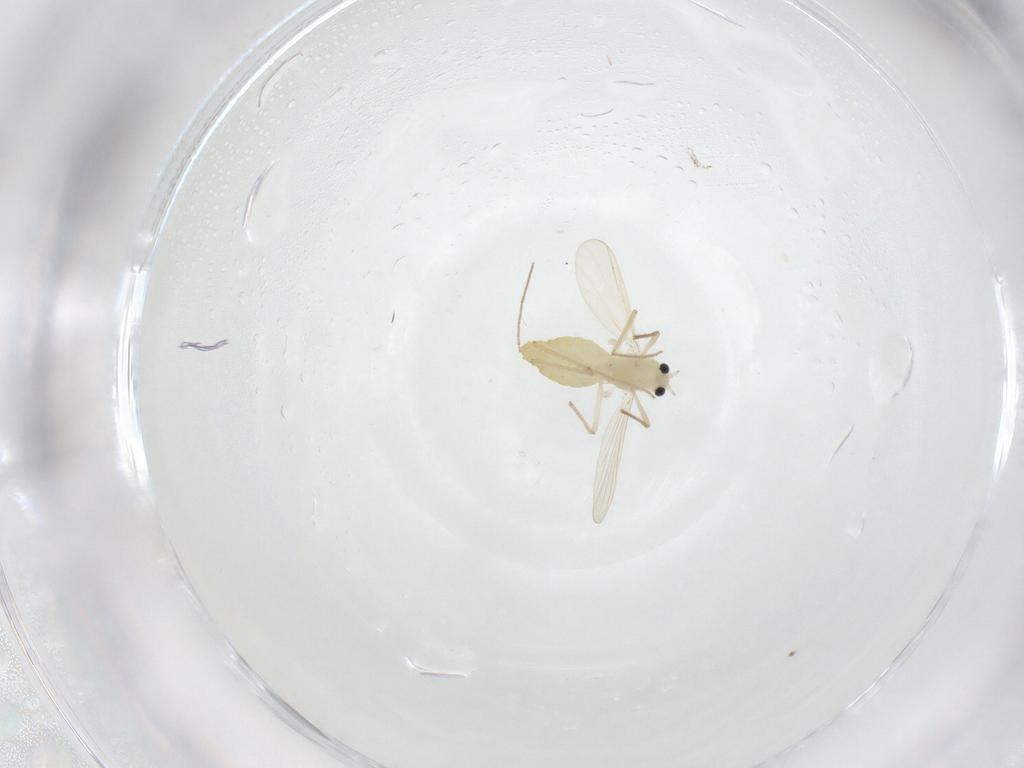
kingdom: Animalia
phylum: Arthropoda
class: Insecta
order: Diptera
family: Chironomidae
